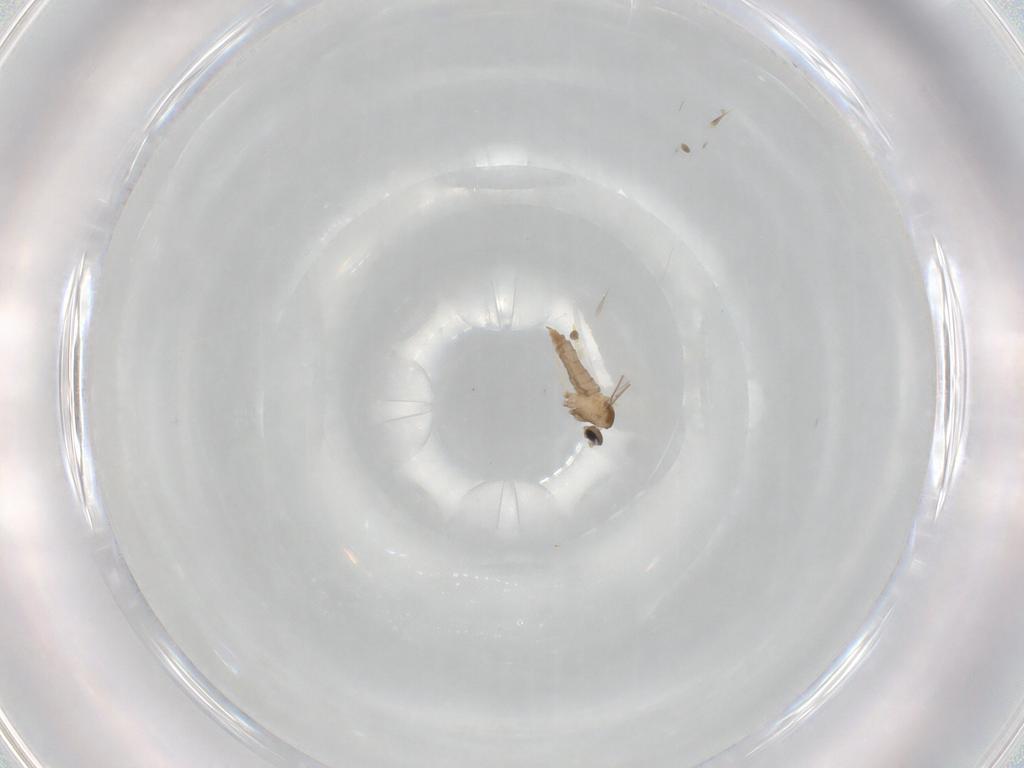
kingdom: Animalia
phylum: Arthropoda
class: Insecta
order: Diptera
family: Cecidomyiidae
